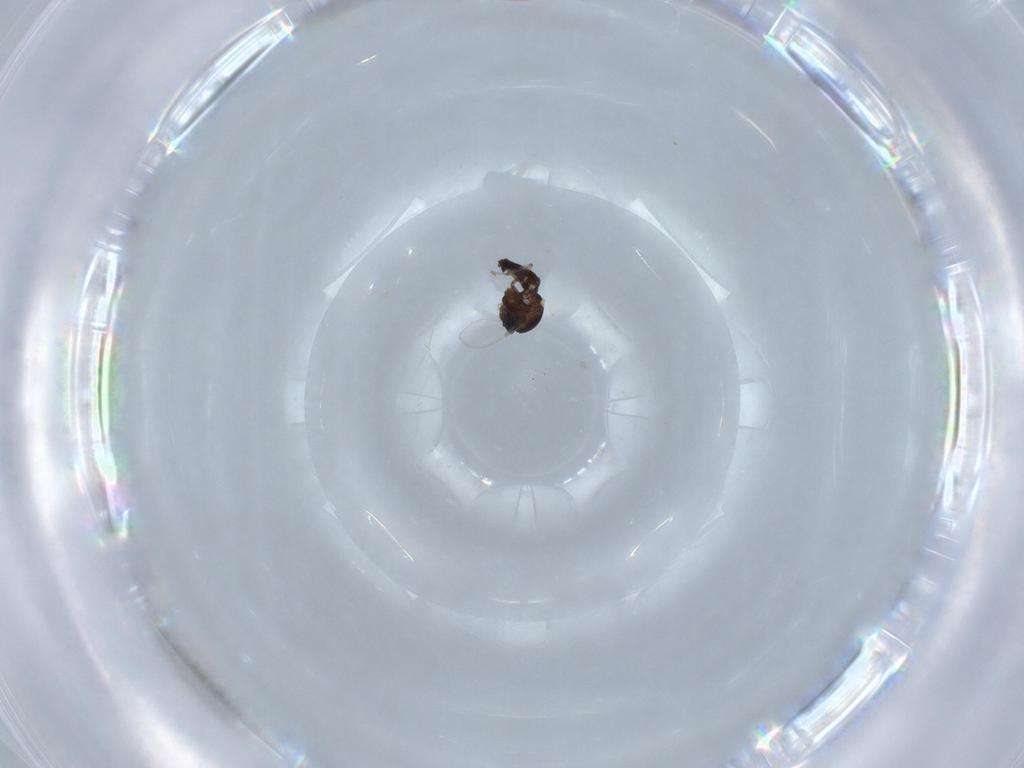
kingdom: Animalia
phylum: Arthropoda
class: Insecta
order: Diptera
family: Ceratopogonidae
